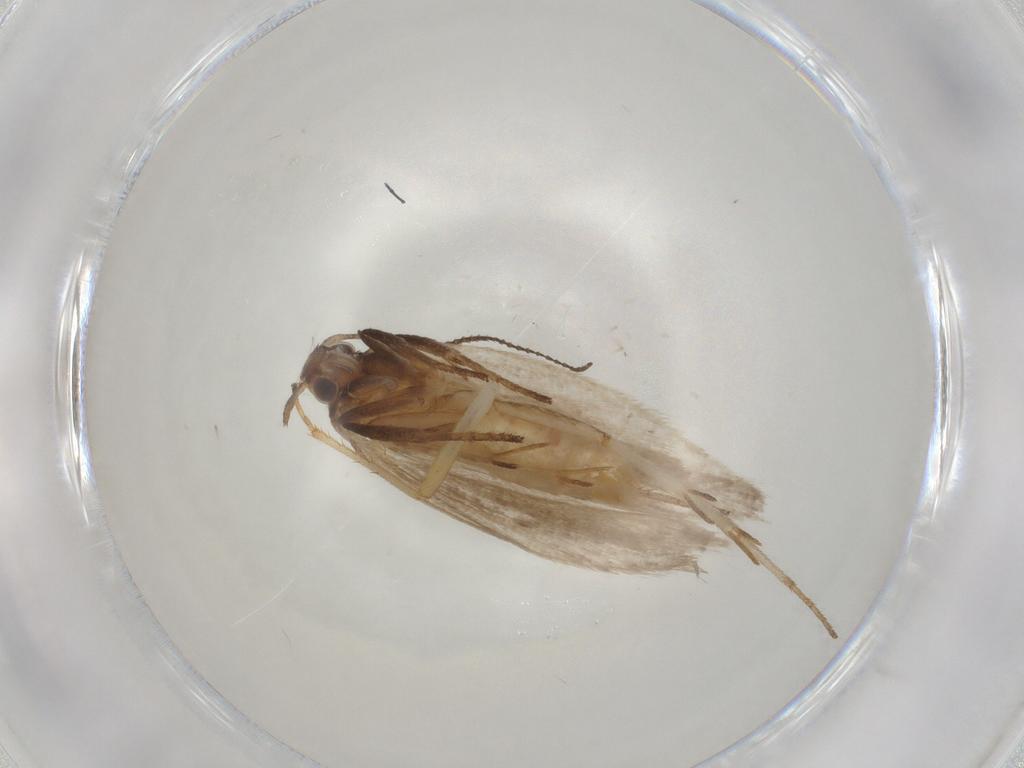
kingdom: Animalia
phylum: Arthropoda
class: Insecta
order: Lepidoptera
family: Gelechiidae
